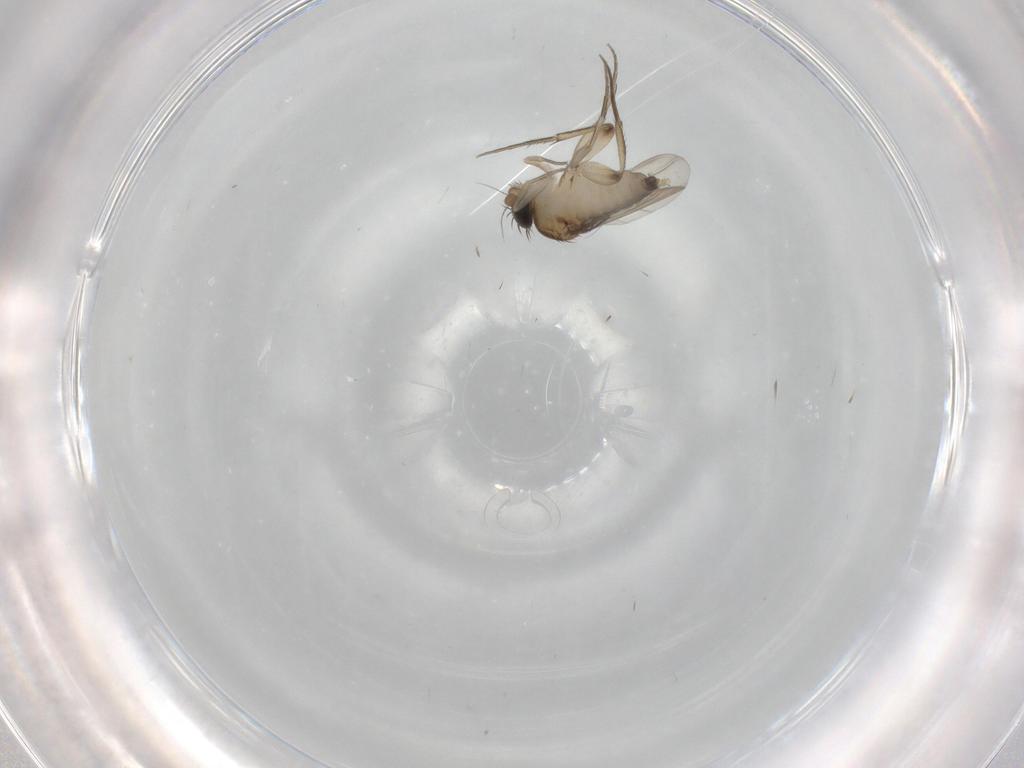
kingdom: Animalia
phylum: Arthropoda
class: Insecta
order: Diptera
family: Phoridae
